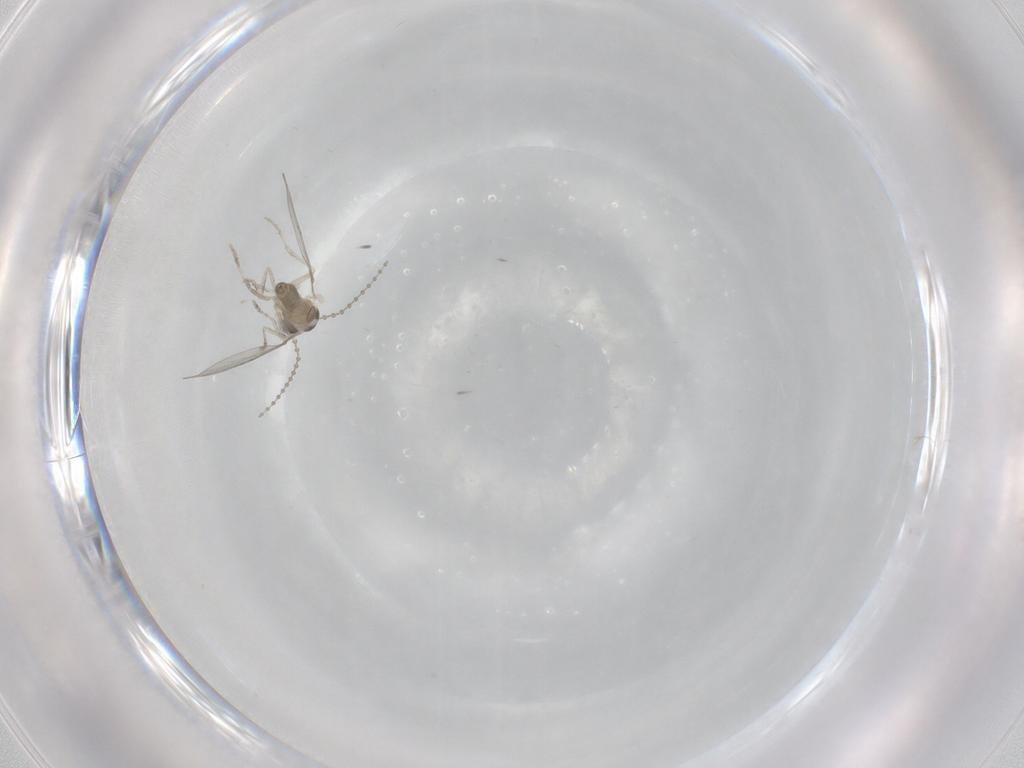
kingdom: Animalia
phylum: Arthropoda
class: Insecta
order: Diptera
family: Cecidomyiidae
